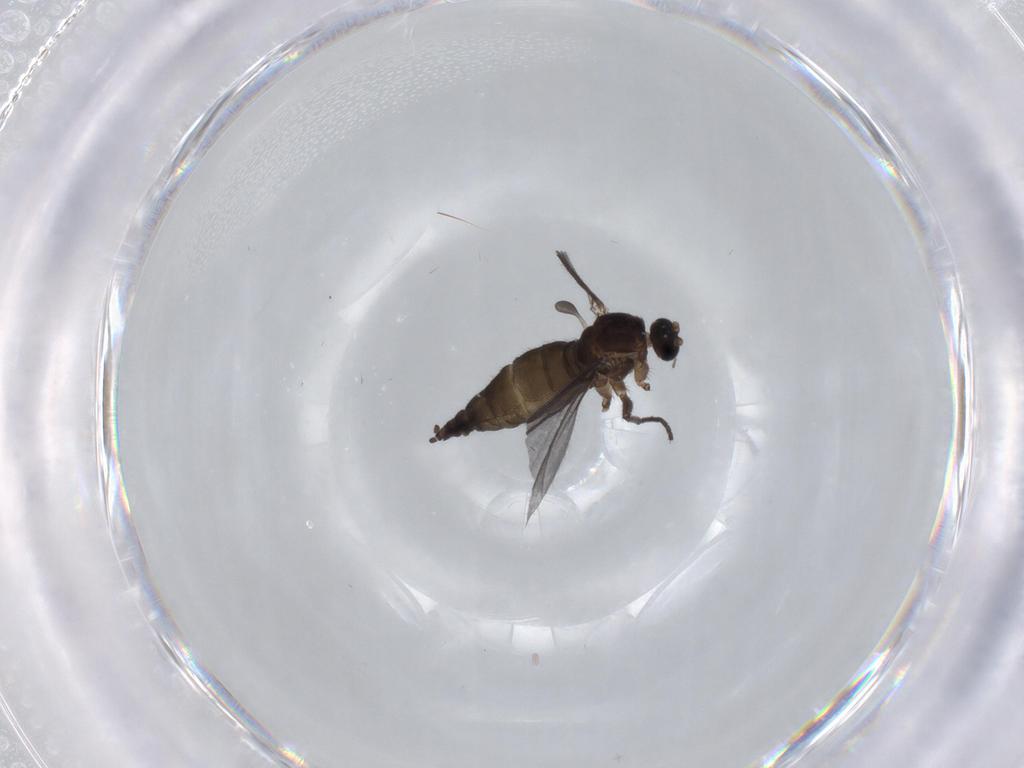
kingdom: Animalia
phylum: Arthropoda
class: Insecta
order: Diptera
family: Sciaridae
